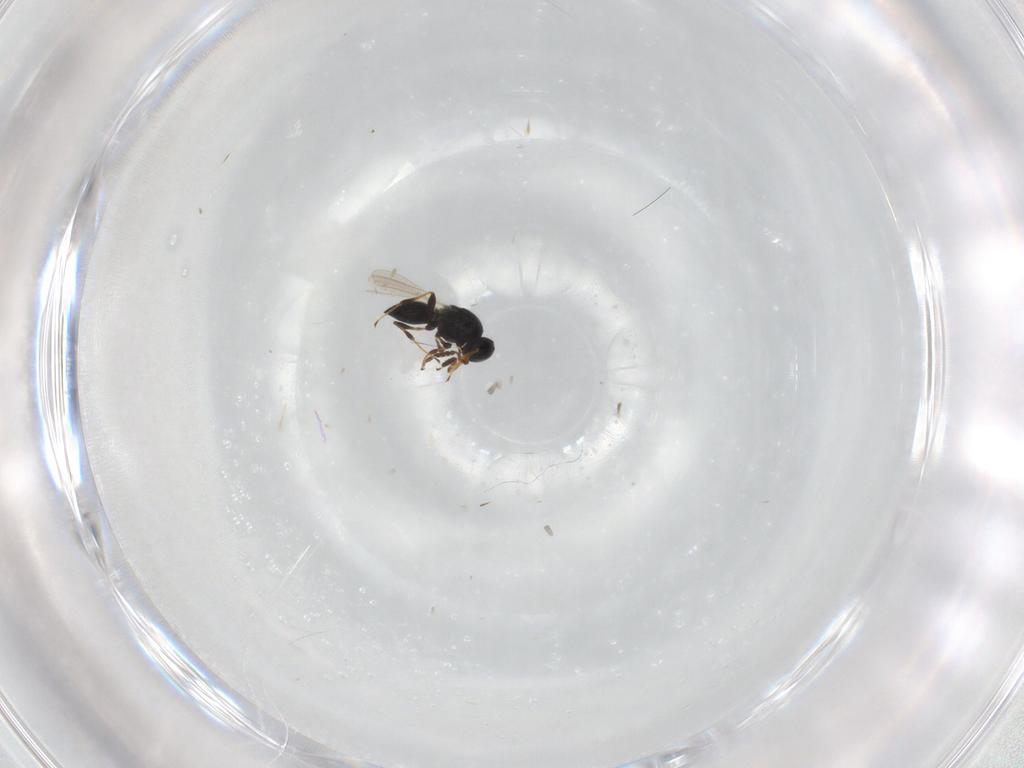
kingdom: Animalia
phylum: Arthropoda
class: Insecta
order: Hymenoptera
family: Platygastridae
